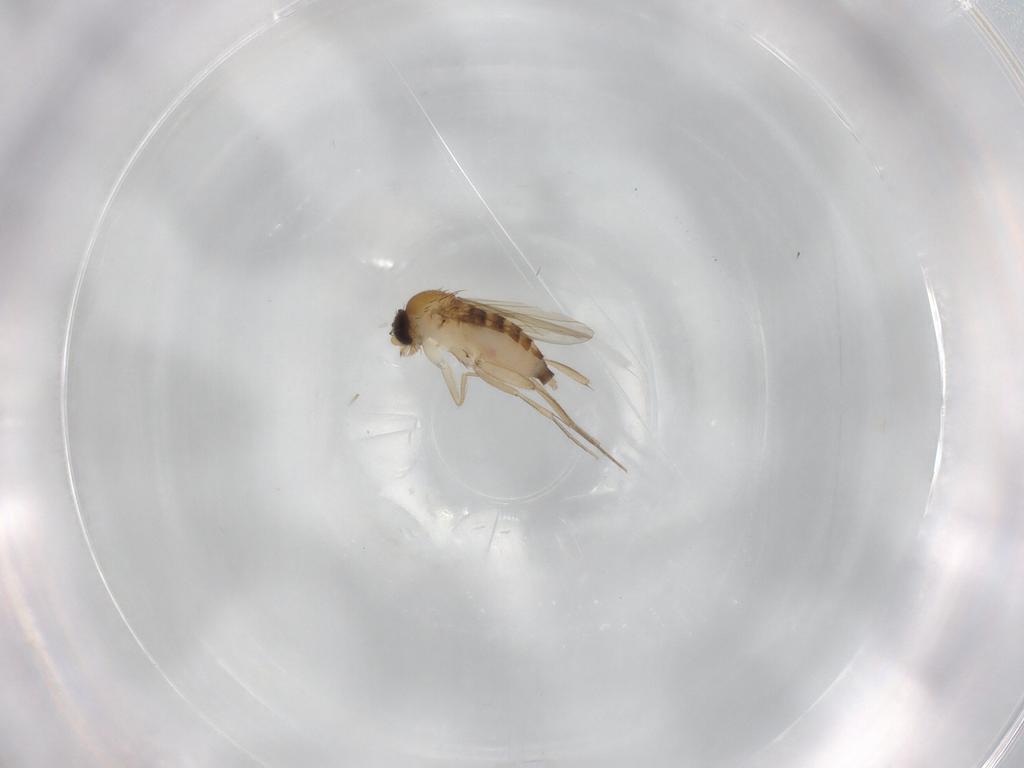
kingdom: Animalia
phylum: Arthropoda
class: Insecta
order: Diptera
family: Phoridae
